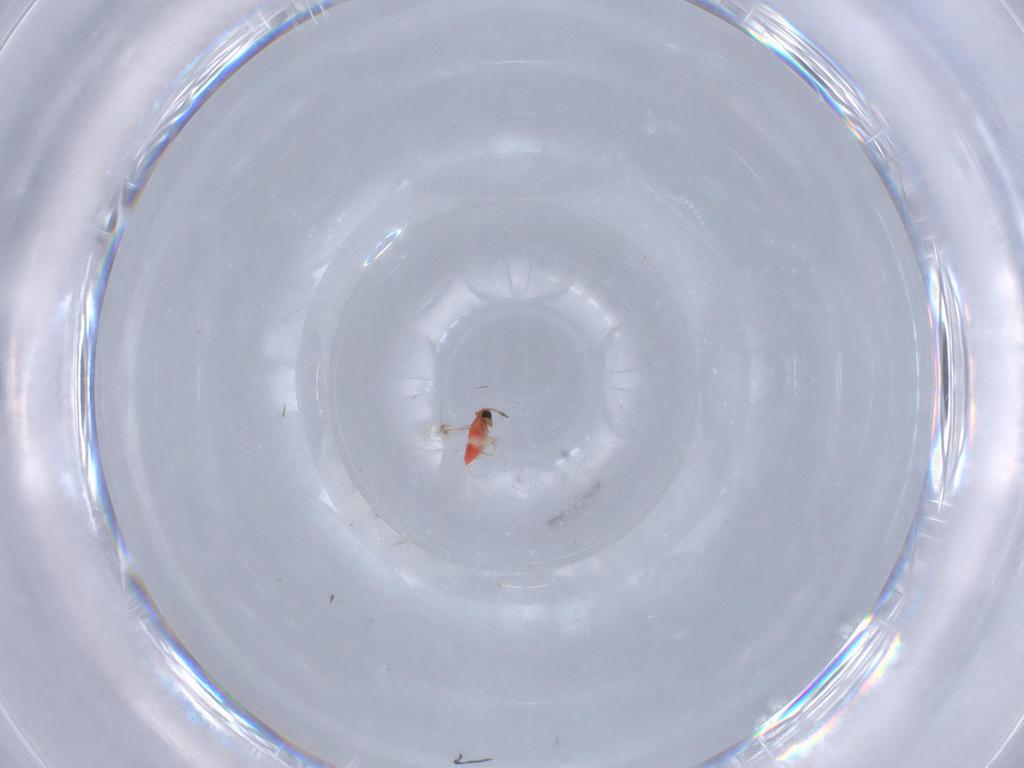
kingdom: Animalia
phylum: Arthropoda
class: Insecta
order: Hymenoptera
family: Trichogrammatidae
